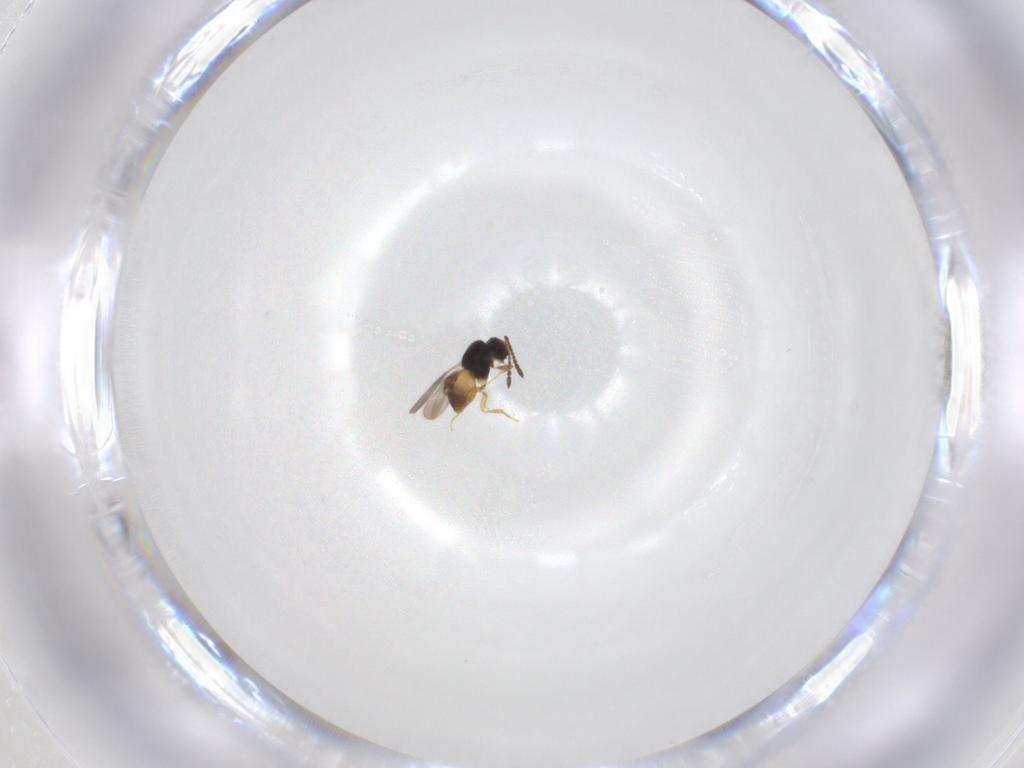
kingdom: Animalia
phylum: Arthropoda
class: Insecta
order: Hymenoptera
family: Braconidae
